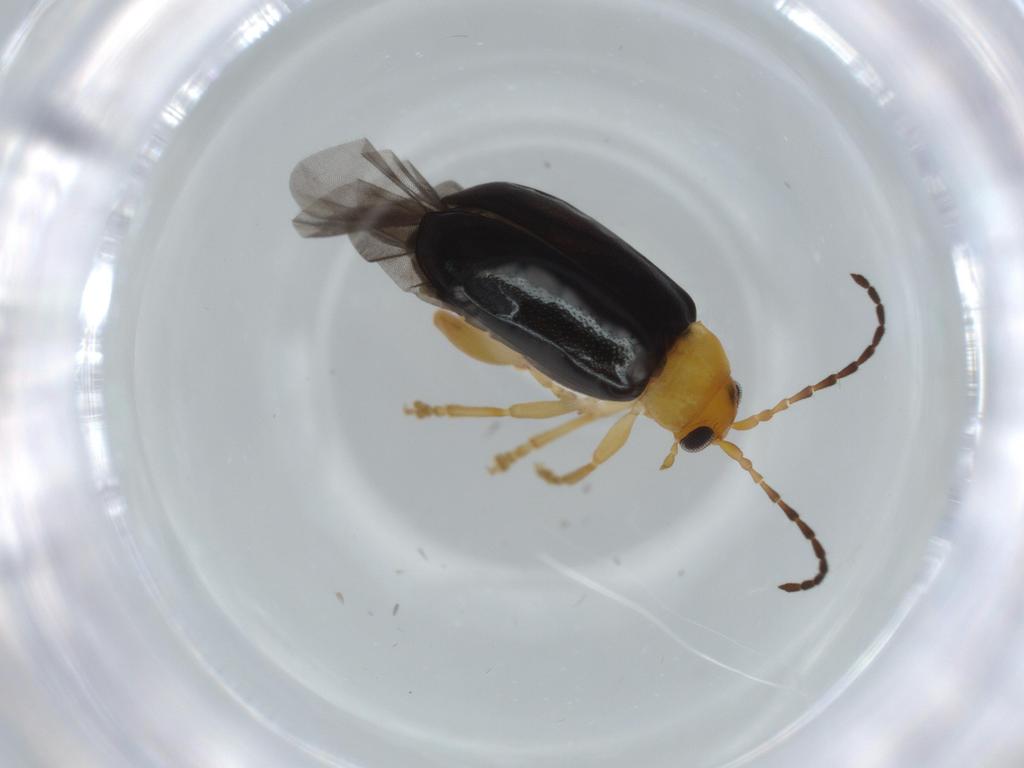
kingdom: Animalia
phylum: Arthropoda
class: Insecta
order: Coleoptera
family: Chrysomelidae
